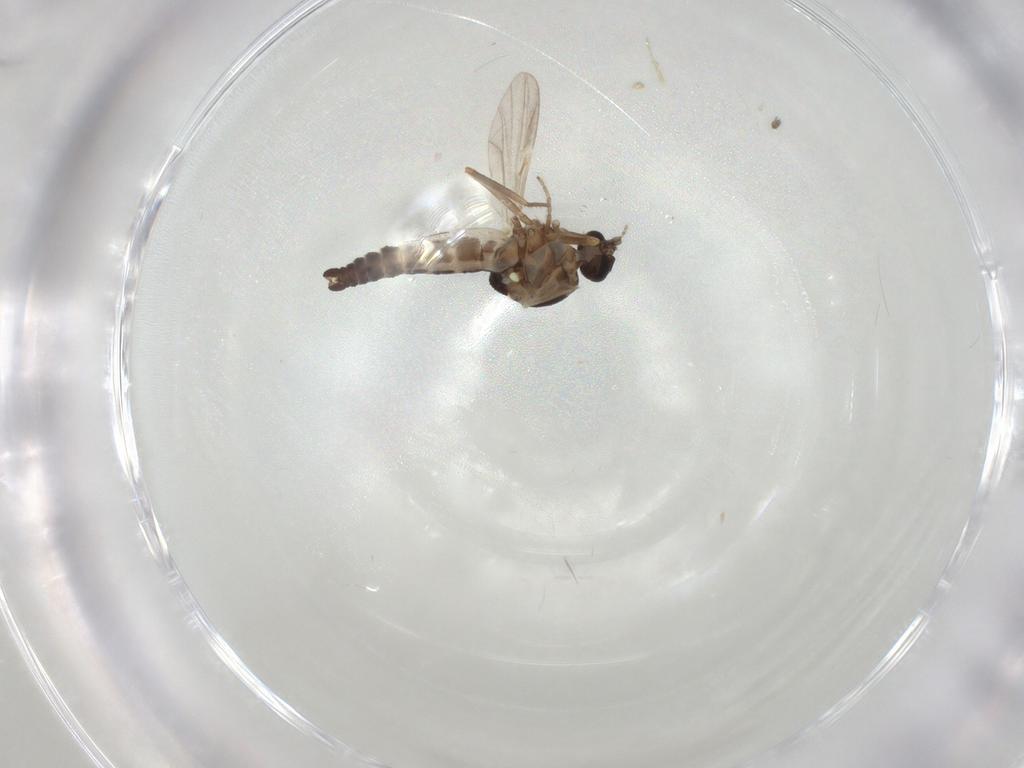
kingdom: Animalia
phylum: Arthropoda
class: Insecta
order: Diptera
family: Ceratopogonidae
